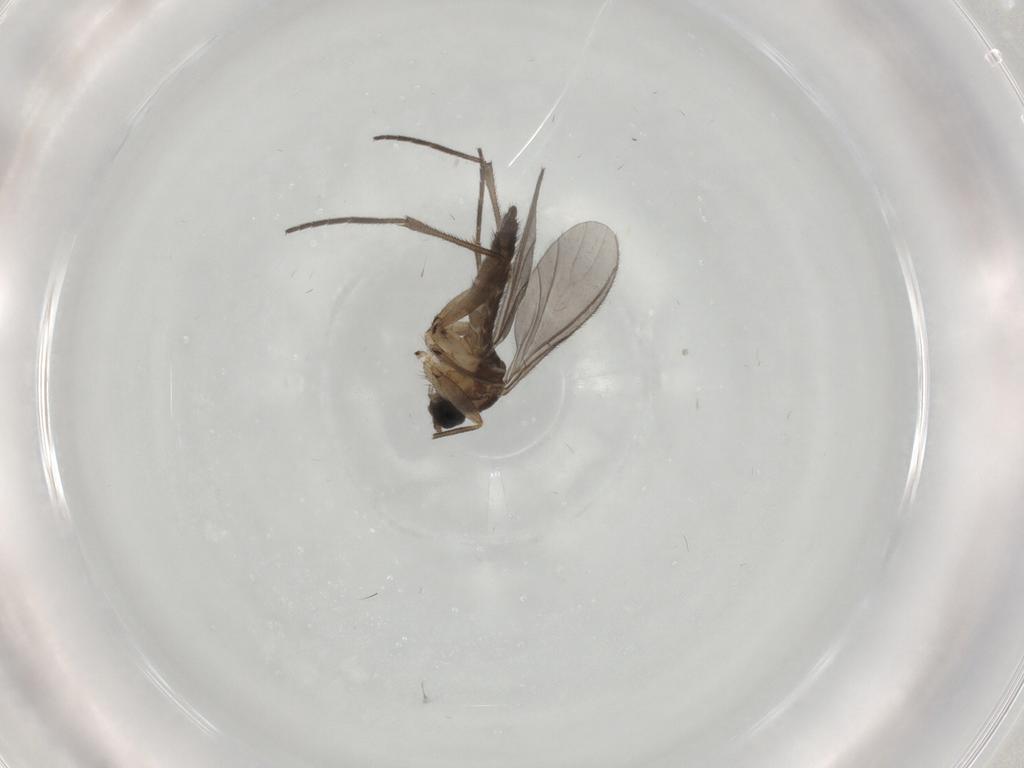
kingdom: Animalia
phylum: Arthropoda
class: Insecta
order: Diptera
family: Sciaridae
